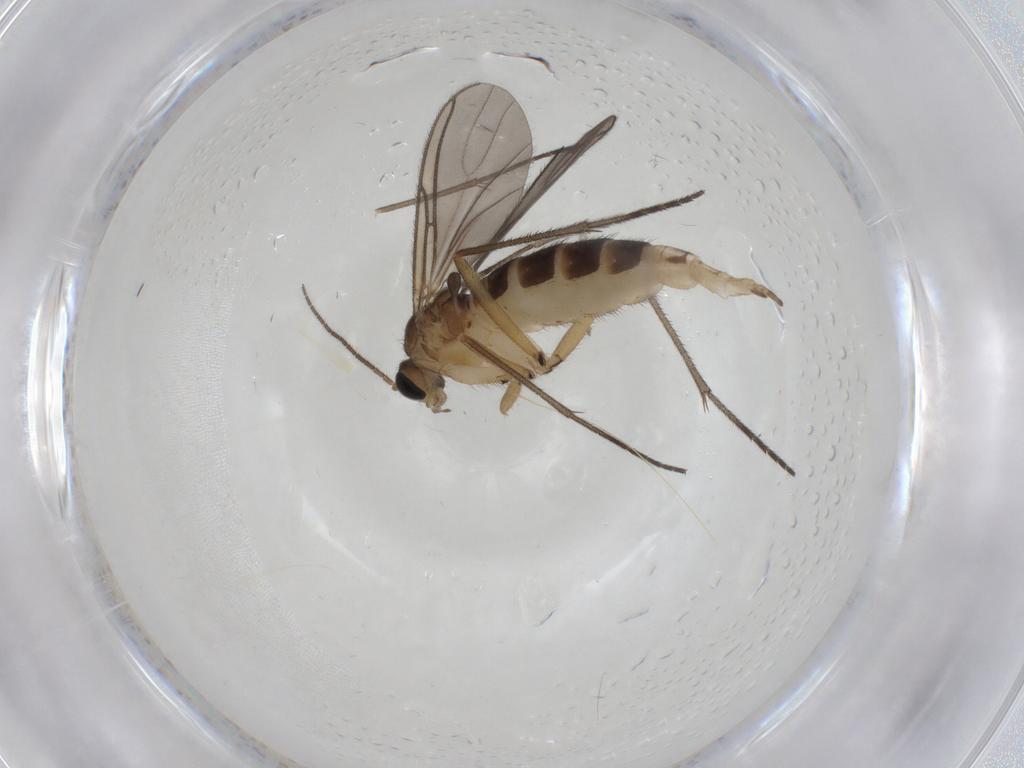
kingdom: Animalia
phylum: Arthropoda
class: Insecta
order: Diptera
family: Sciaridae
